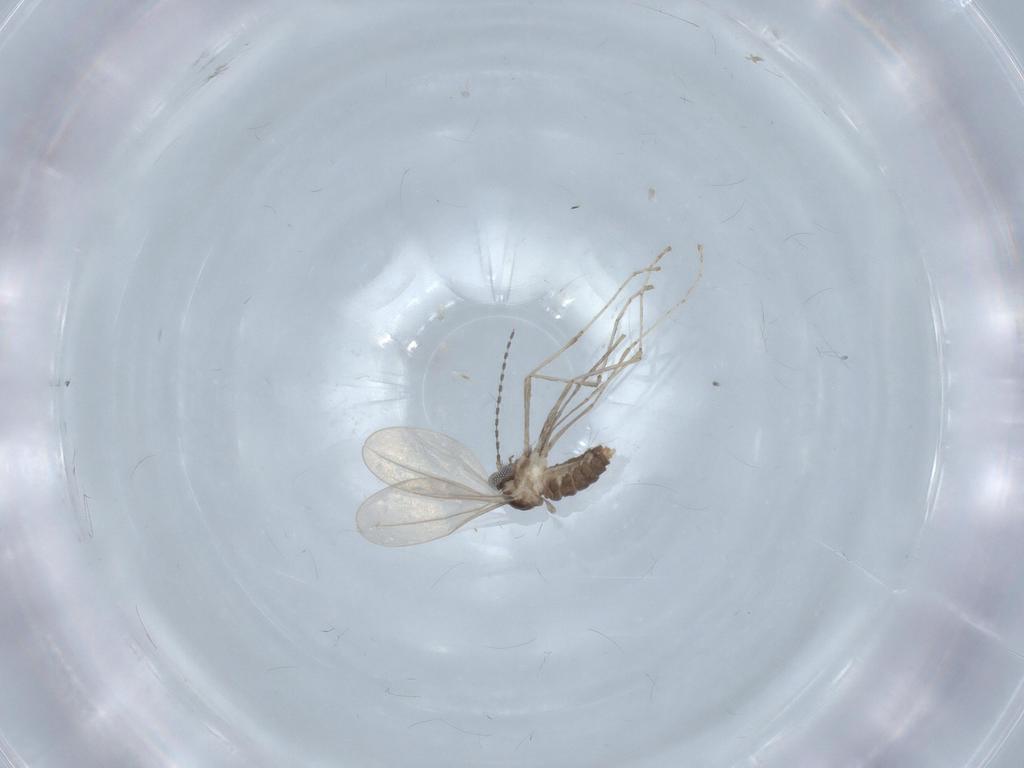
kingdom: Animalia
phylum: Arthropoda
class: Insecta
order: Diptera
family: Cecidomyiidae
